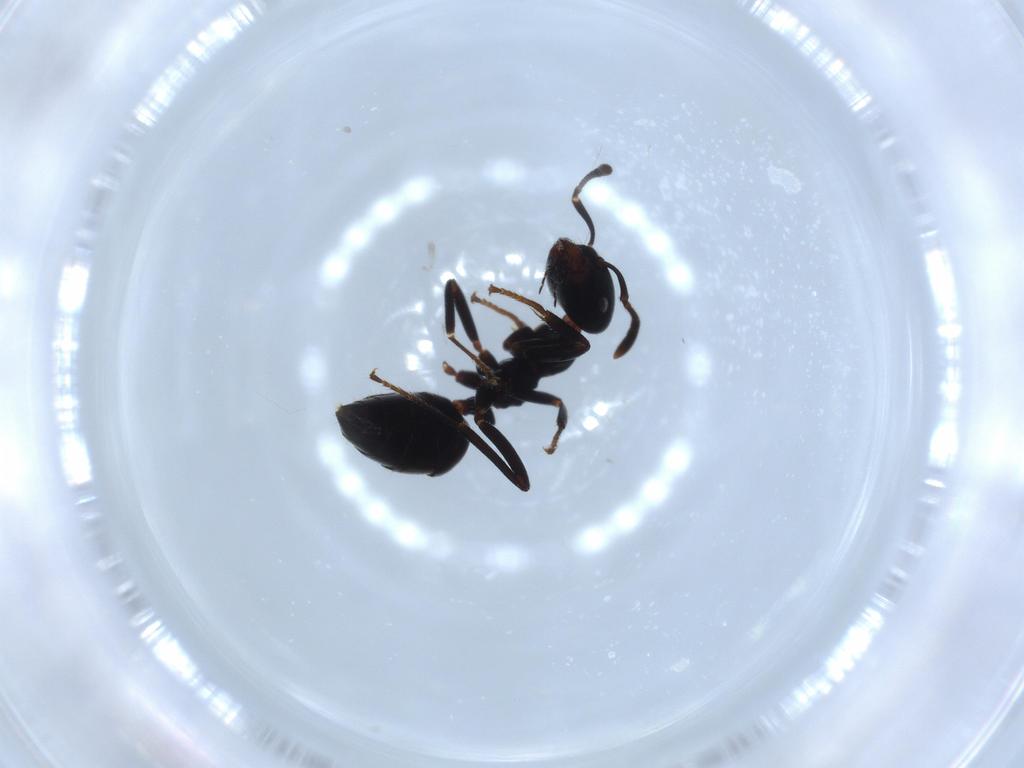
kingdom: Animalia
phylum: Arthropoda
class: Insecta
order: Hymenoptera
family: Formicidae
